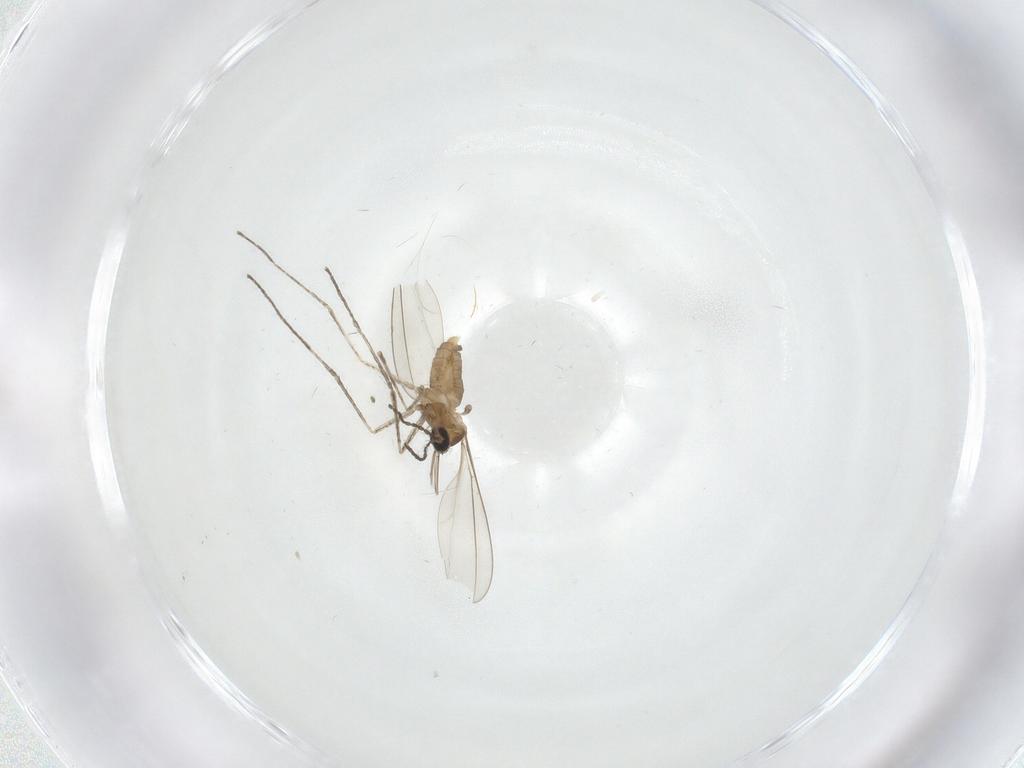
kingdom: Animalia
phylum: Arthropoda
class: Insecta
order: Diptera
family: Cecidomyiidae
